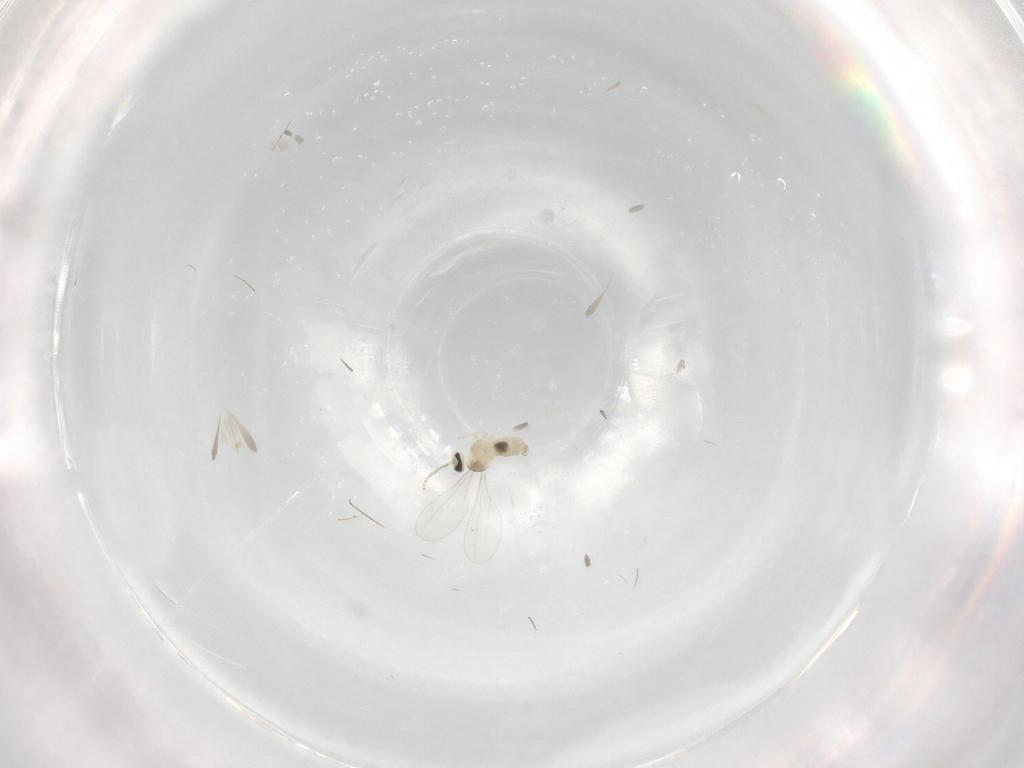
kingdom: Animalia
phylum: Arthropoda
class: Insecta
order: Diptera
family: Cecidomyiidae
